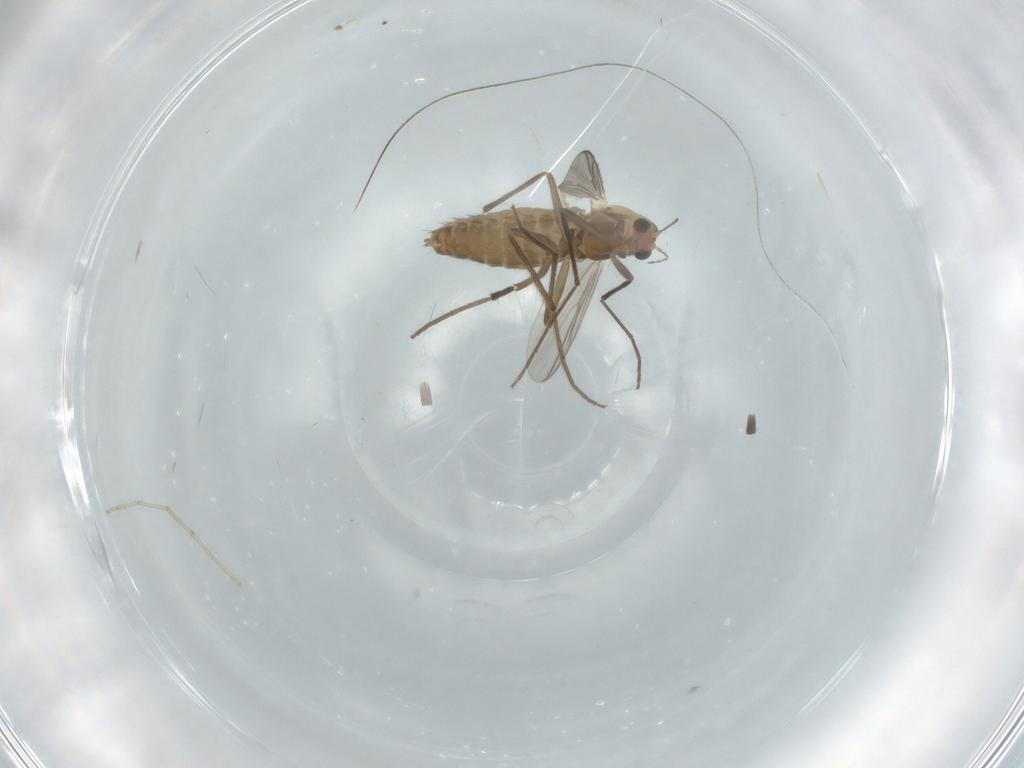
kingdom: Animalia
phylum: Arthropoda
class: Insecta
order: Diptera
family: Chironomidae
